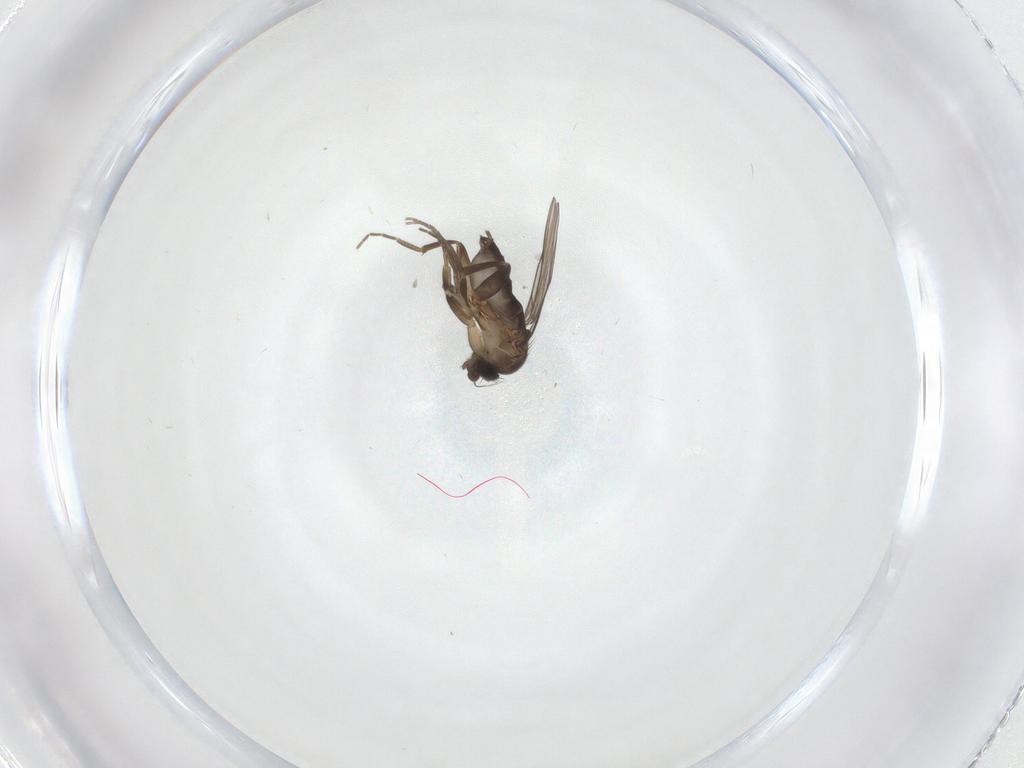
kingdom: Animalia
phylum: Arthropoda
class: Insecta
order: Diptera
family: Phoridae
